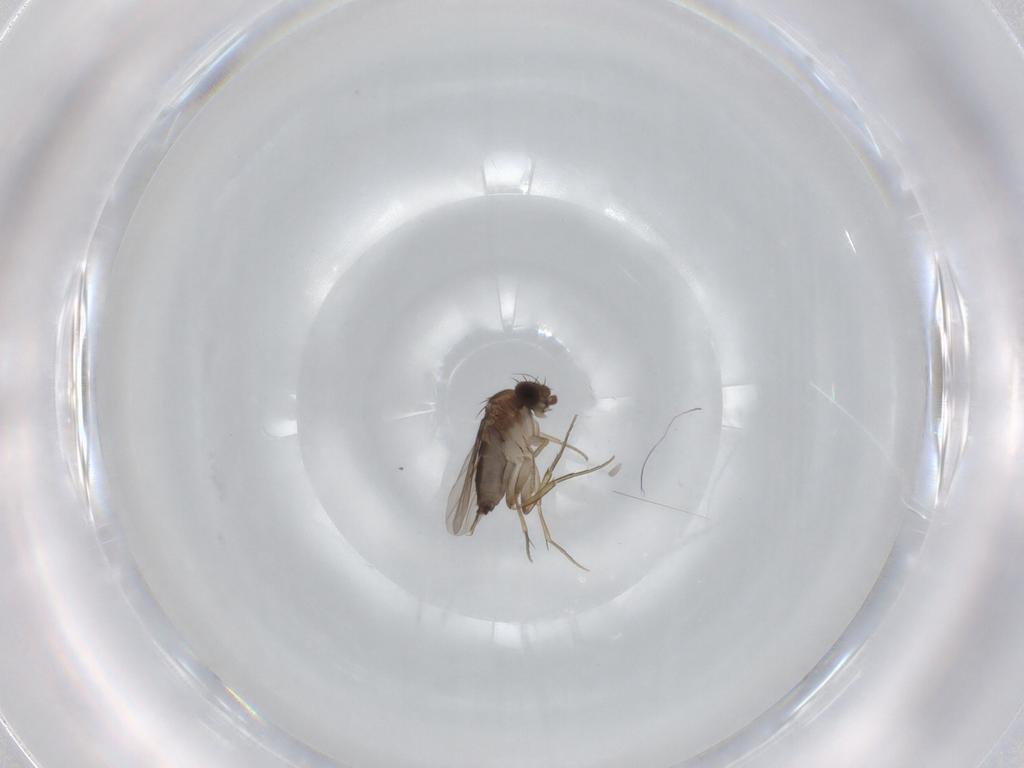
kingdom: Animalia
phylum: Arthropoda
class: Insecta
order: Diptera
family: Phoridae
